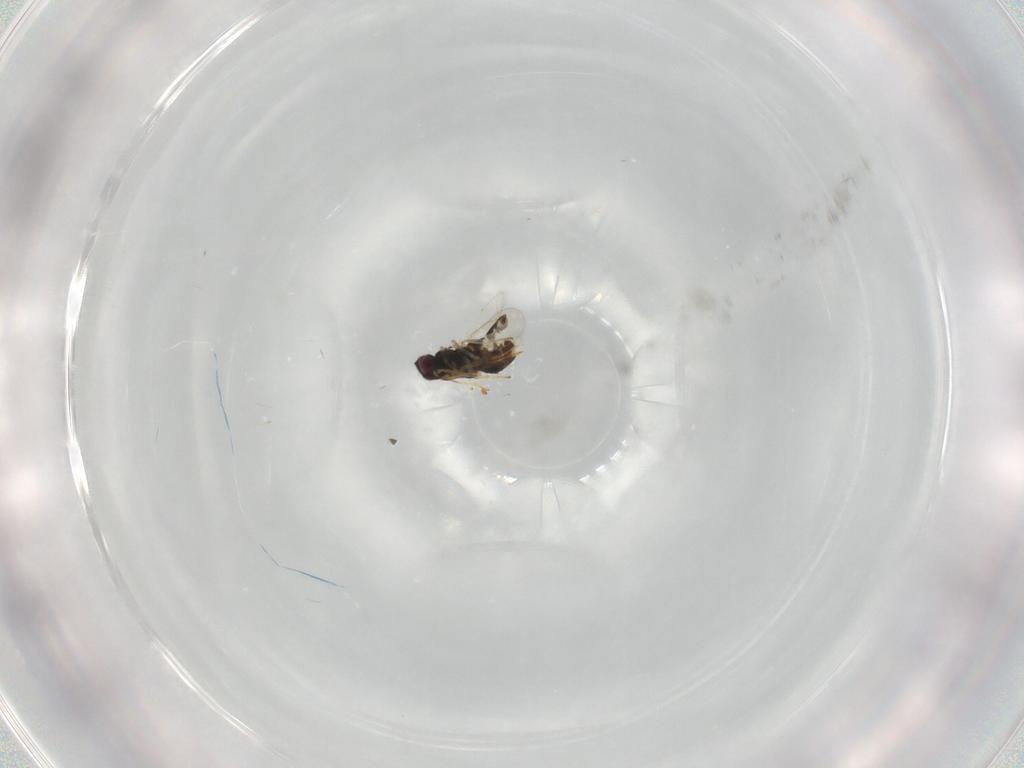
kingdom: Animalia
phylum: Arthropoda
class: Insecta
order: Hymenoptera
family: Aphelinidae
